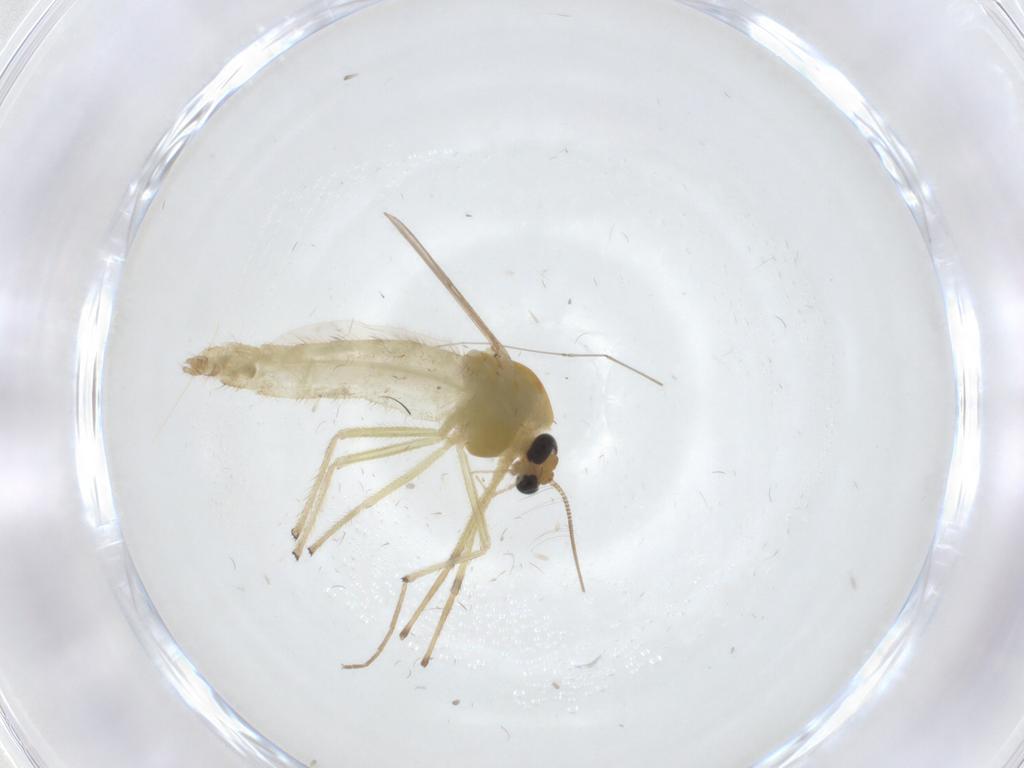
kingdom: Animalia
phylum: Arthropoda
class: Insecta
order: Diptera
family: Chironomidae
